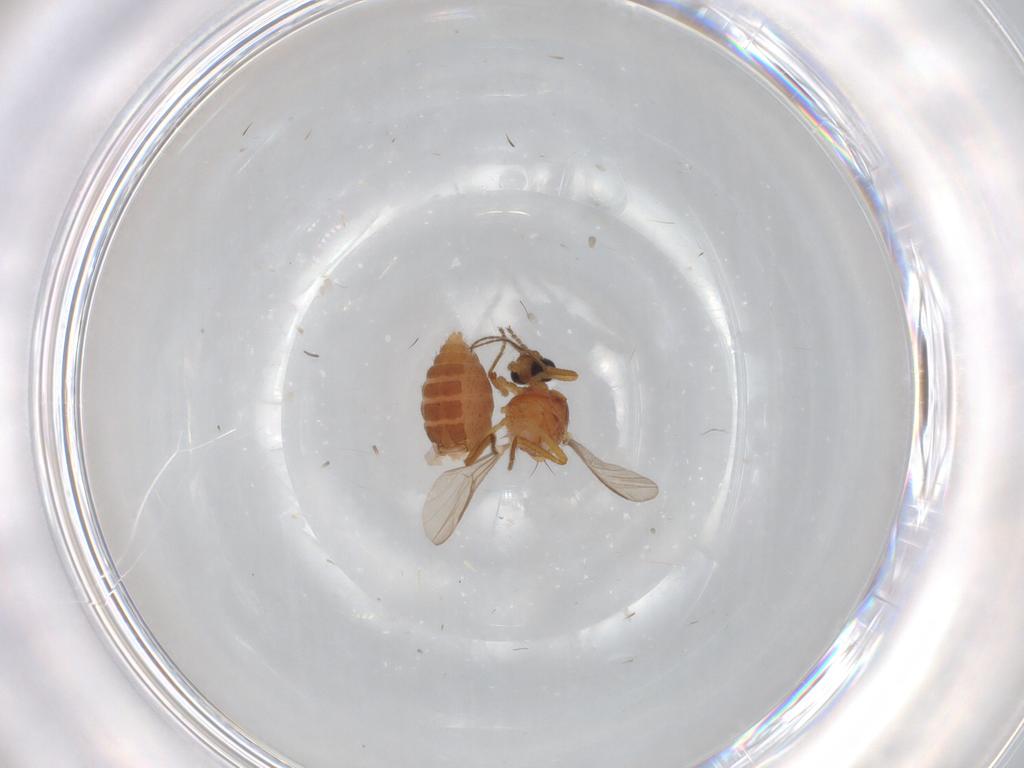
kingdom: Animalia
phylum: Arthropoda
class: Insecta
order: Diptera
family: Ceratopogonidae
